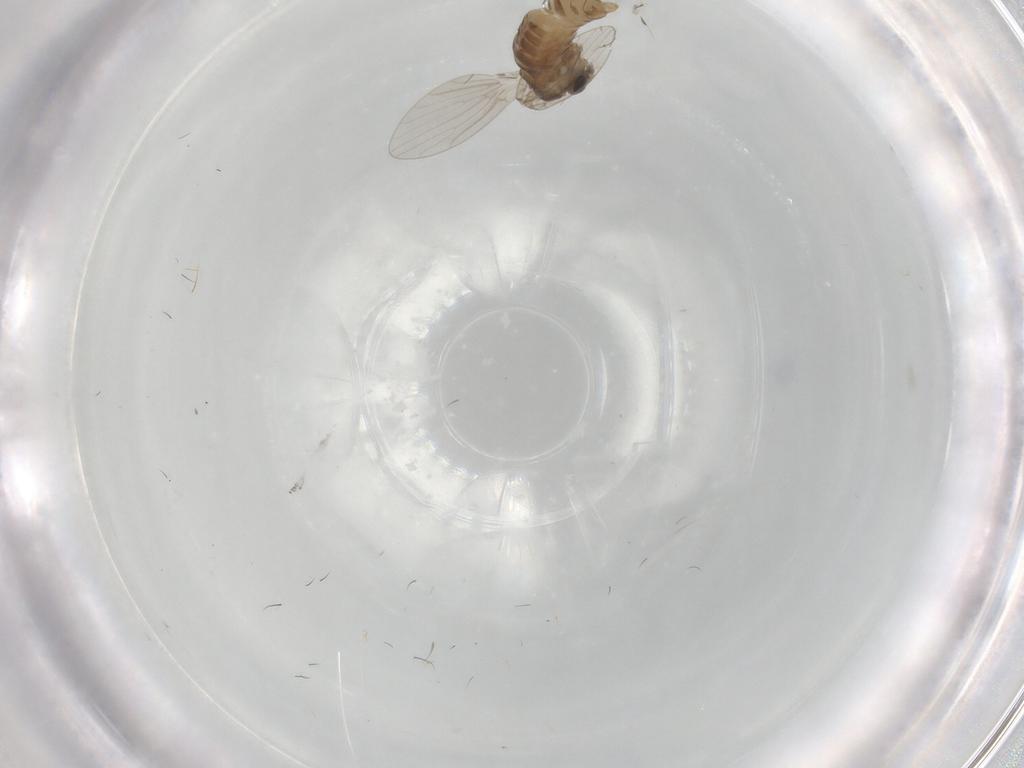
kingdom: Animalia
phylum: Arthropoda
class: Insecta
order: Diptera
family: Psychodidae
